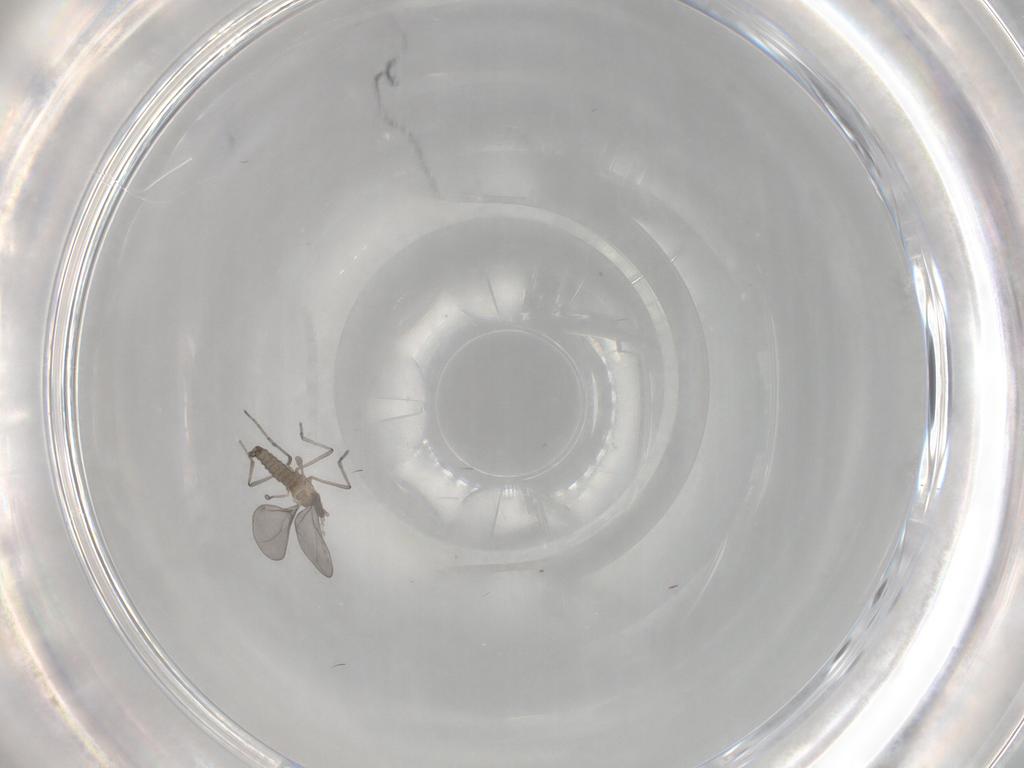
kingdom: Animalia
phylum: Arthropoda
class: Insecta
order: Diptera
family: Cecidomyiidae
